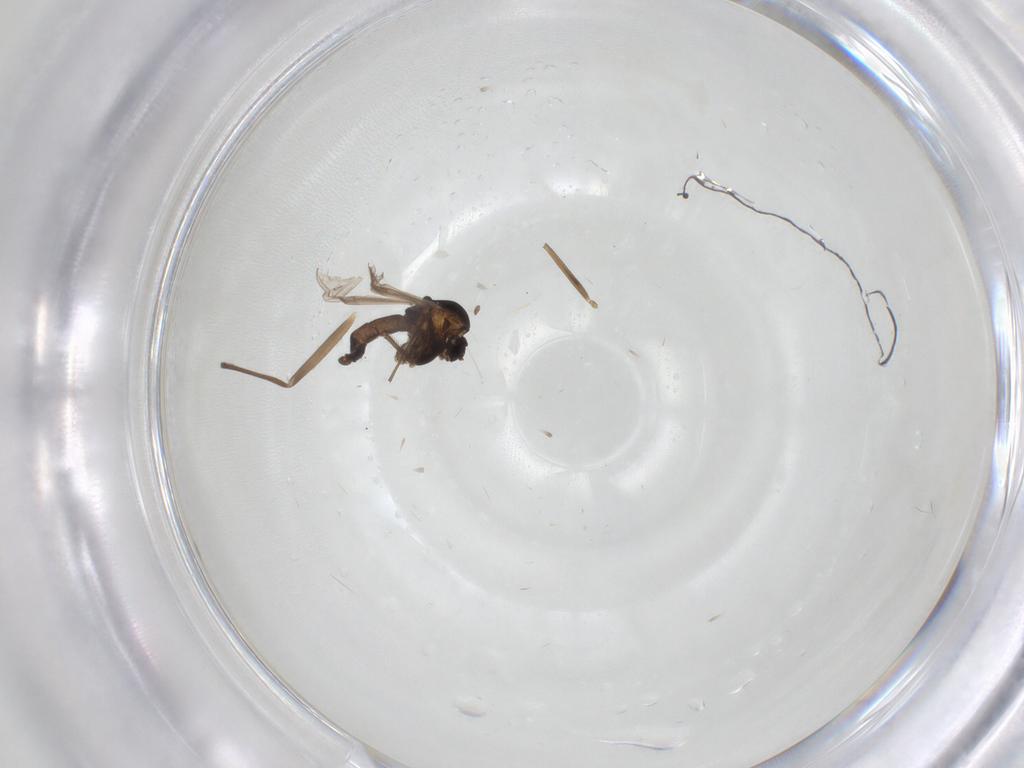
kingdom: Animalia
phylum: Arthropoda
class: Insecta
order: Diptera
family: Chironomidae
